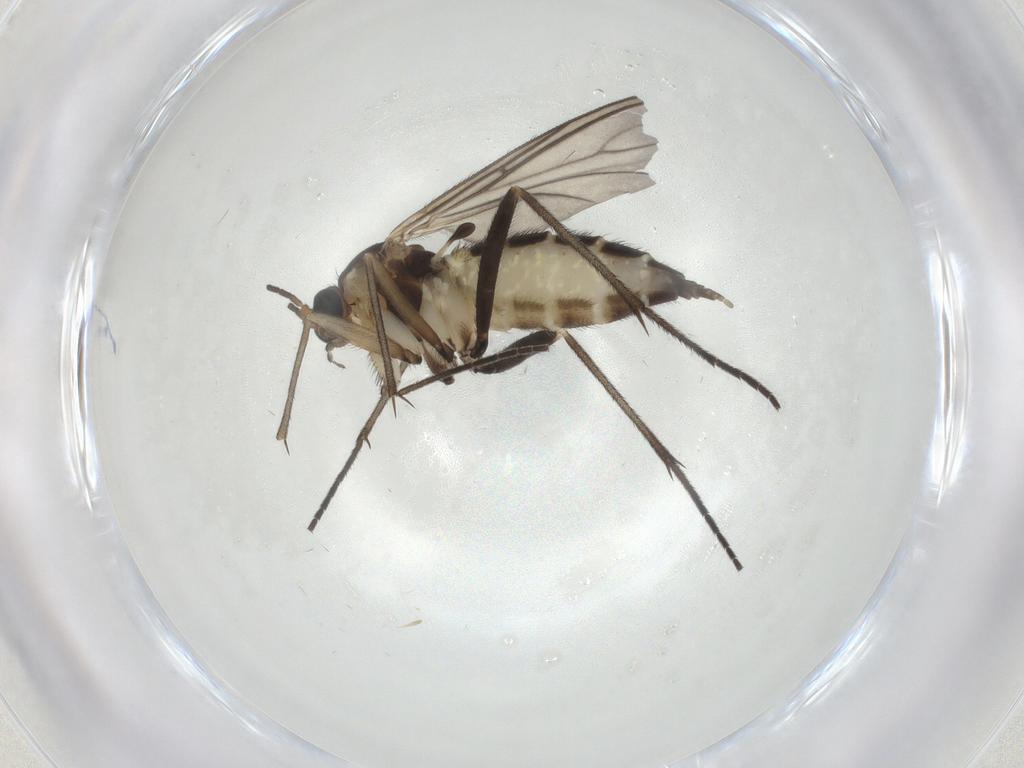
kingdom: Animalia
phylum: Arthropoda
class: Insecta
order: Diptera
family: Sciaridae
